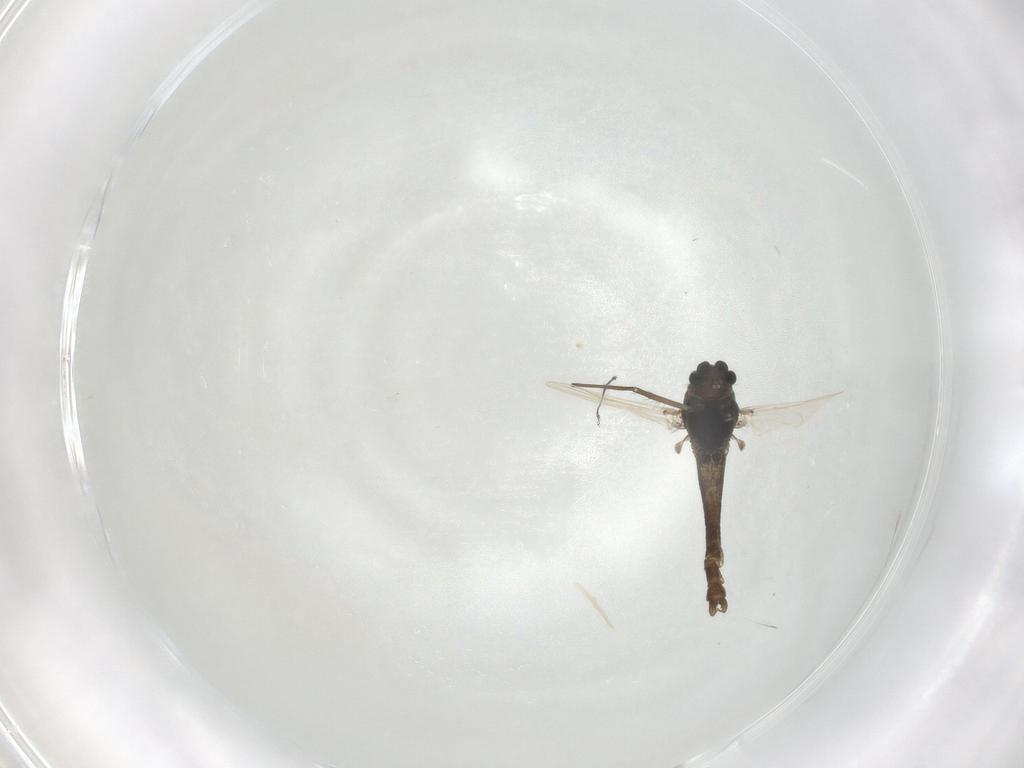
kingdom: Animalia
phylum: Arthropoda
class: Insecta
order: Diptera
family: Chironomidae
